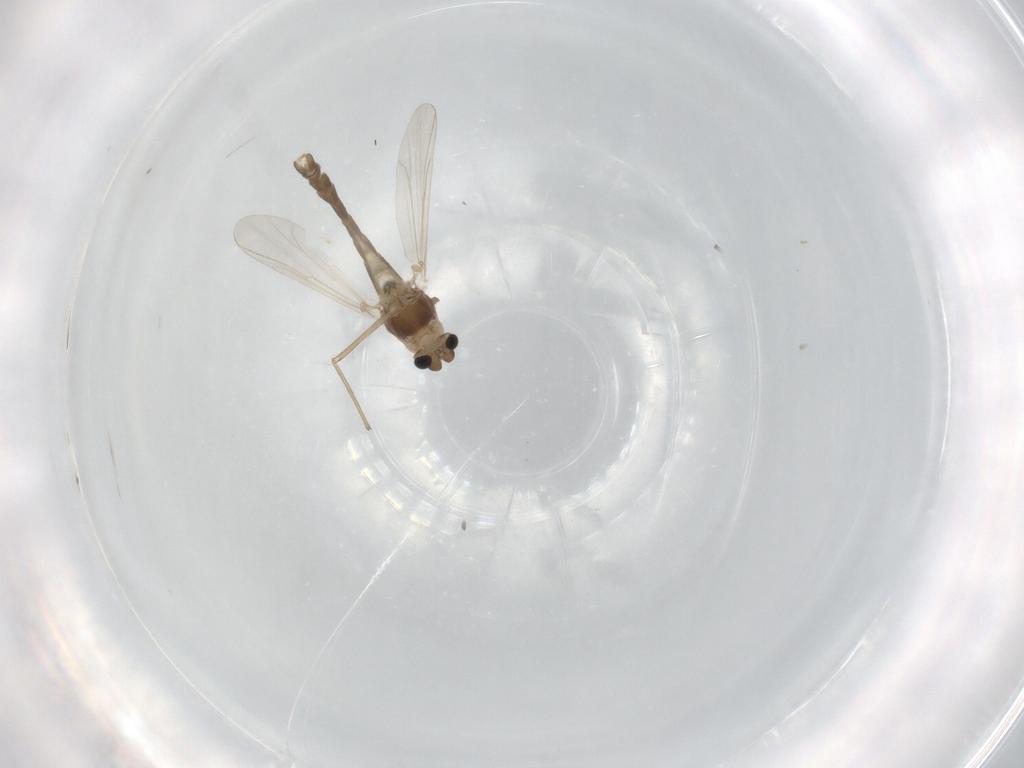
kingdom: Animalia
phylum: Arthropoda
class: Insecta
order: Diptera
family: Chironomidae
